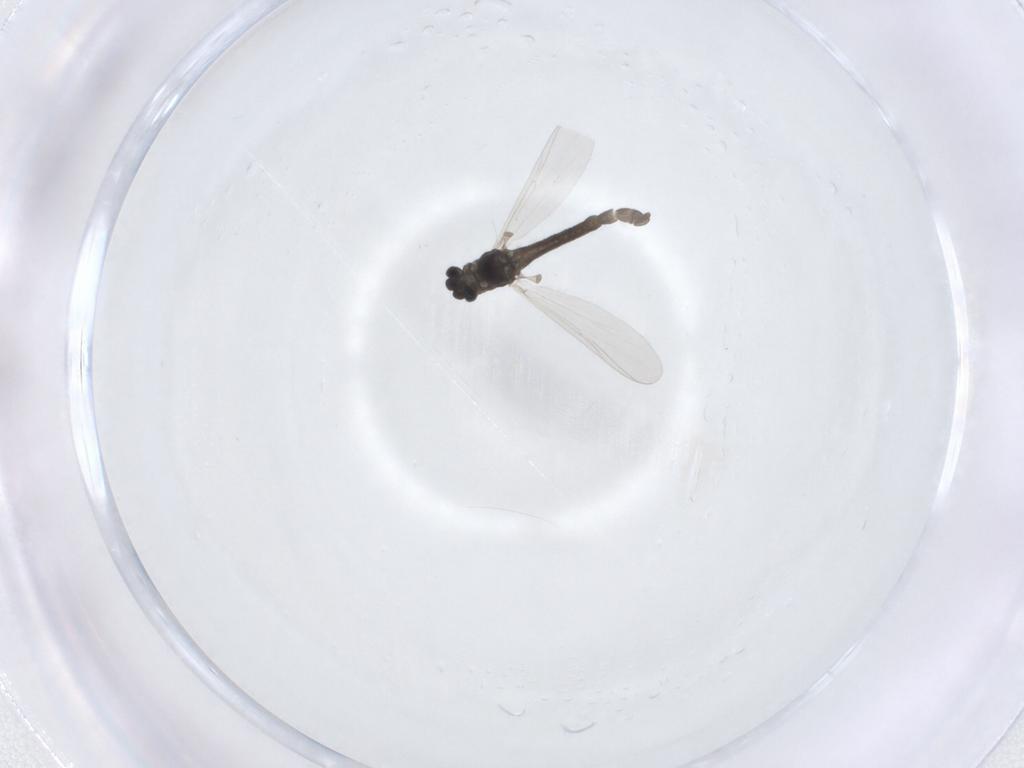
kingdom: Animalia
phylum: Arthropoda
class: Insecta
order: Diptera
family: Chironomidae
